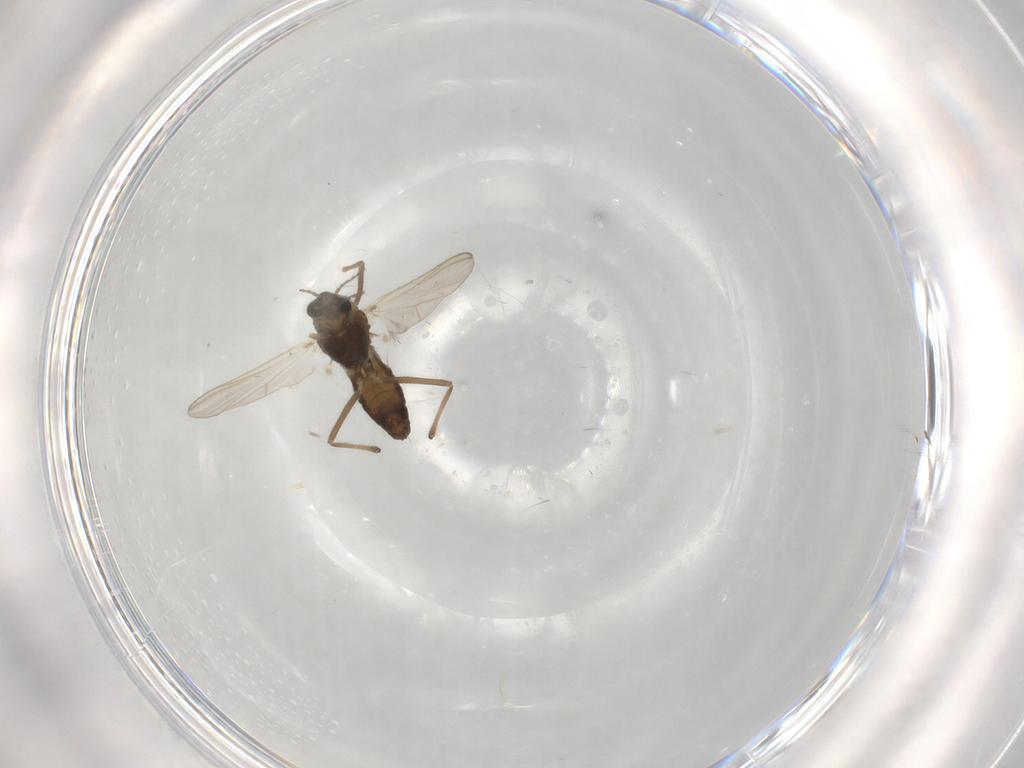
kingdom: Animalia
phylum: Arthropoda
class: Insecta
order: Diptera
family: Chironomidae
